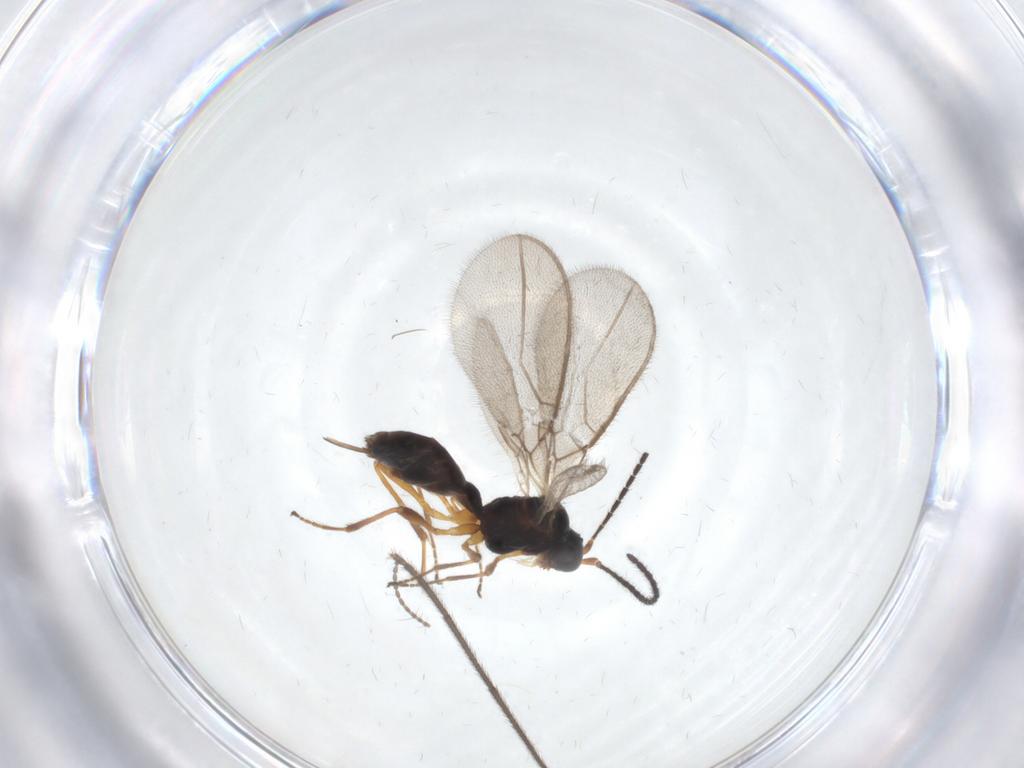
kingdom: Animalia
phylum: Arthropoda
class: Insecta
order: Hymenoptera
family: Braconidae
